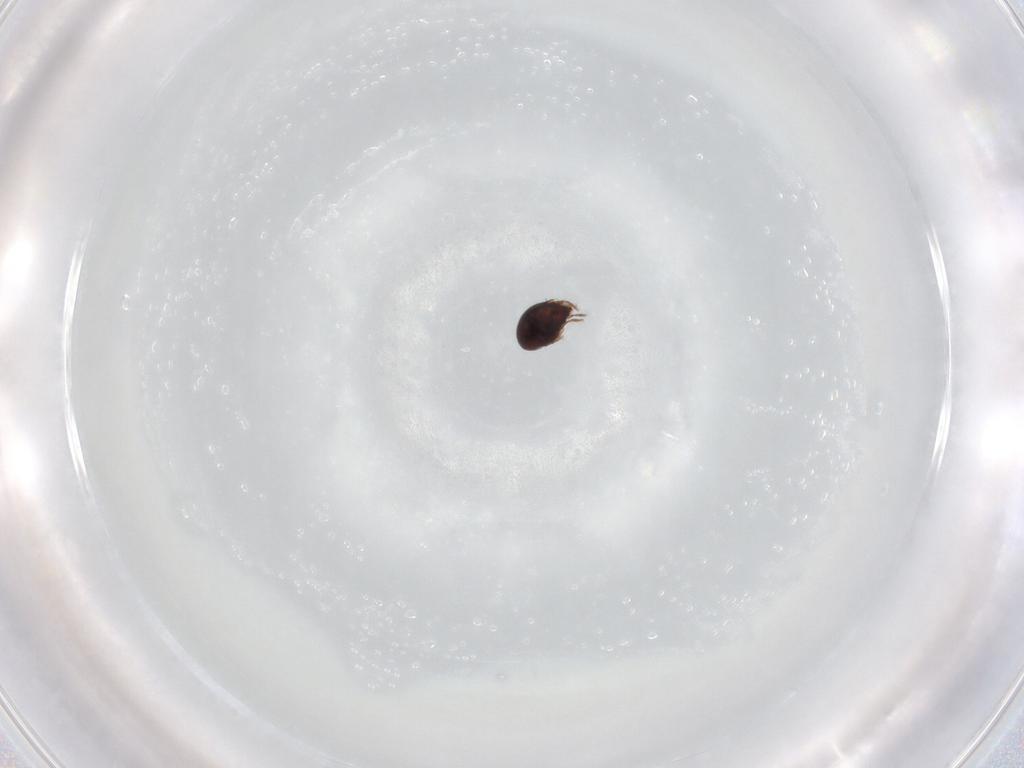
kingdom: Animalia
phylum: Arthropoda
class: Arachnida
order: Sarcoptiformes
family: Achipteriidae
